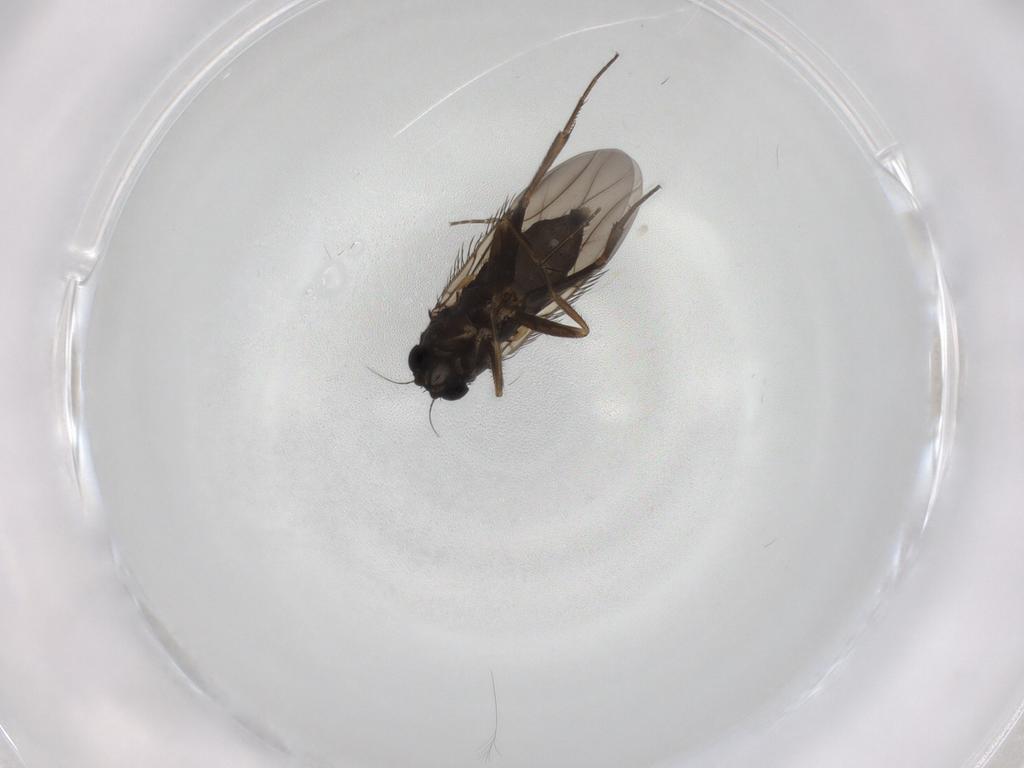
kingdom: Animalia
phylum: Arthropoda
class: Insecta
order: Diptera
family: Phoridae
